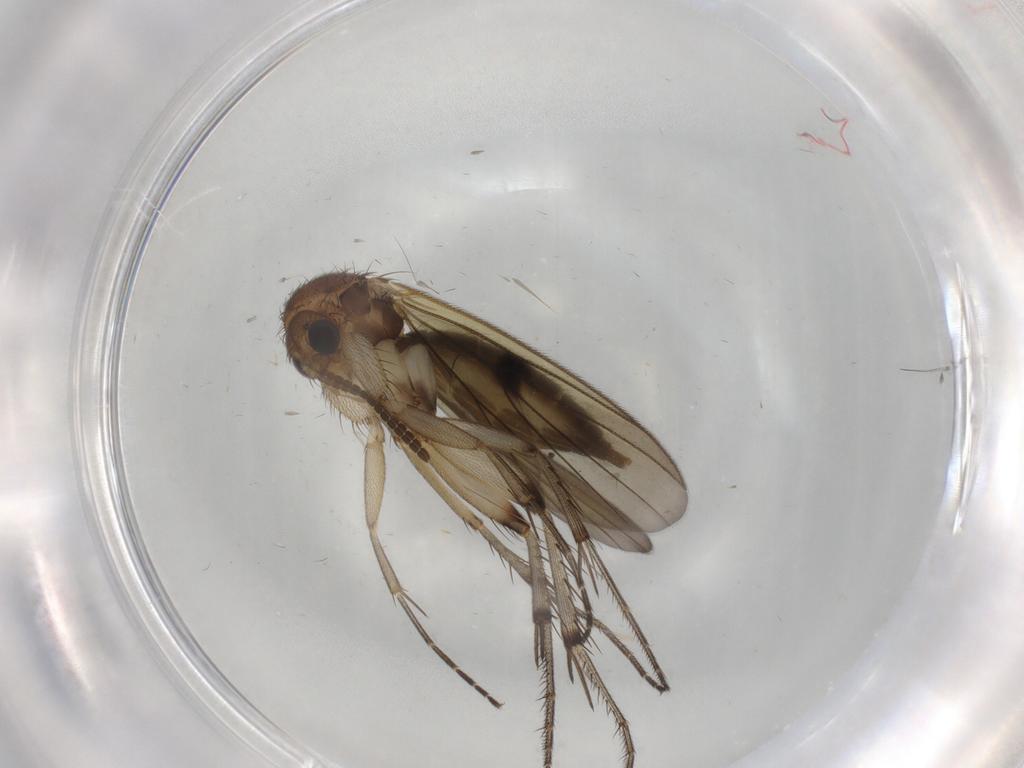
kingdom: Animalia
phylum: Arthropoda
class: Insecta
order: Diptera
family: Mycetophilidae
